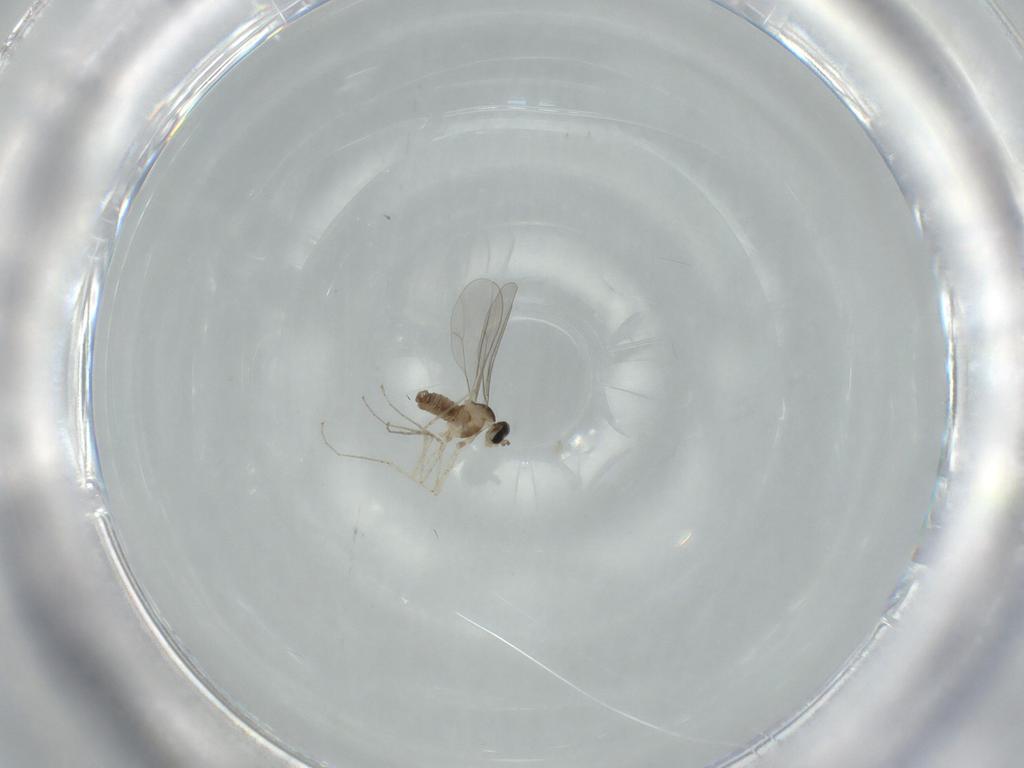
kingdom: Animalia
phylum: Arthropoda
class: Insecta
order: Diptera
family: Cecidomyiidae
